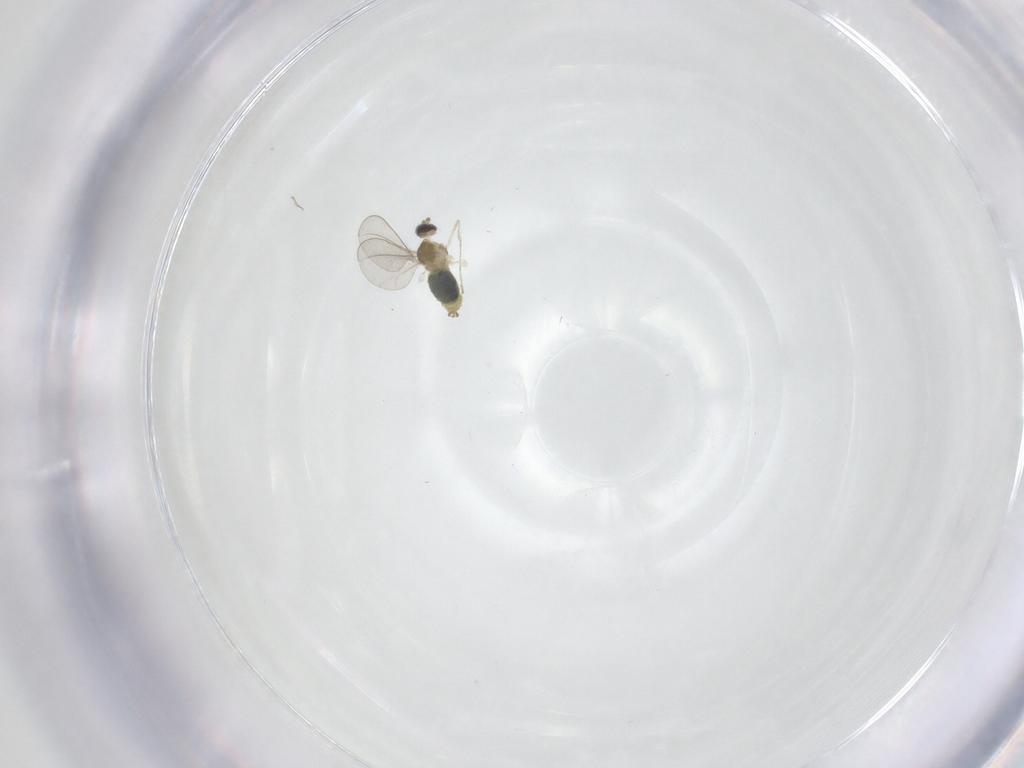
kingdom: Animalia
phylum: Arthropoda
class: Insecta
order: Diptera
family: Cecidomyiidae
